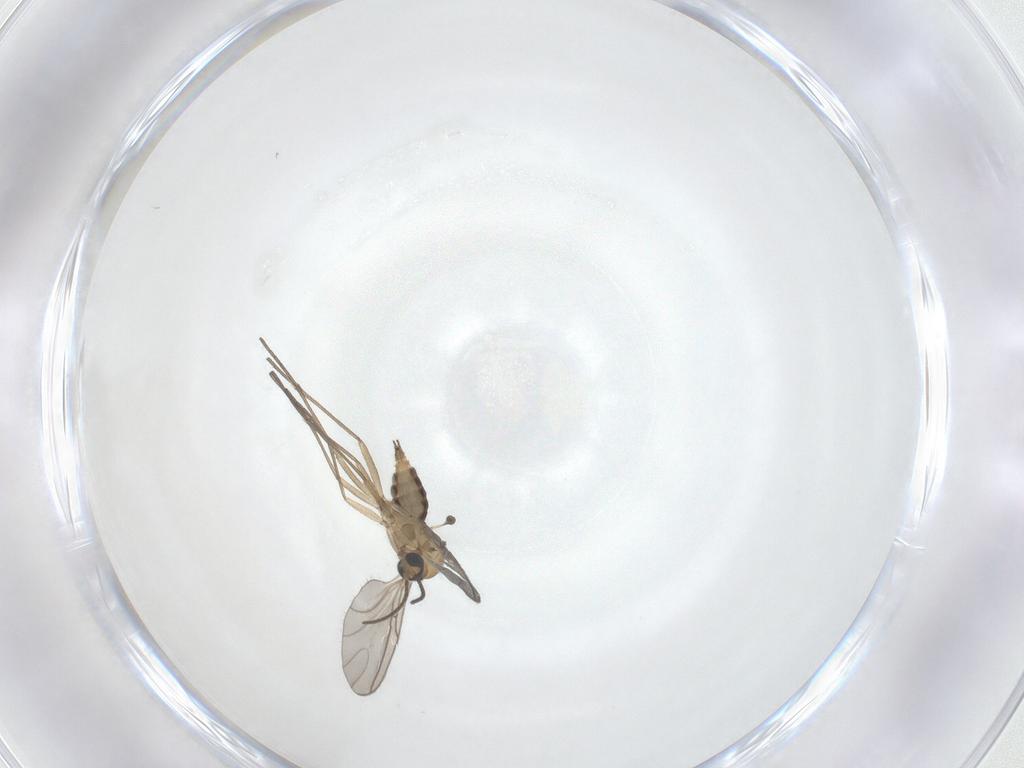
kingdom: Animalia
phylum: Arthropoda
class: Insecta
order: Diptera
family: Sciaridae
